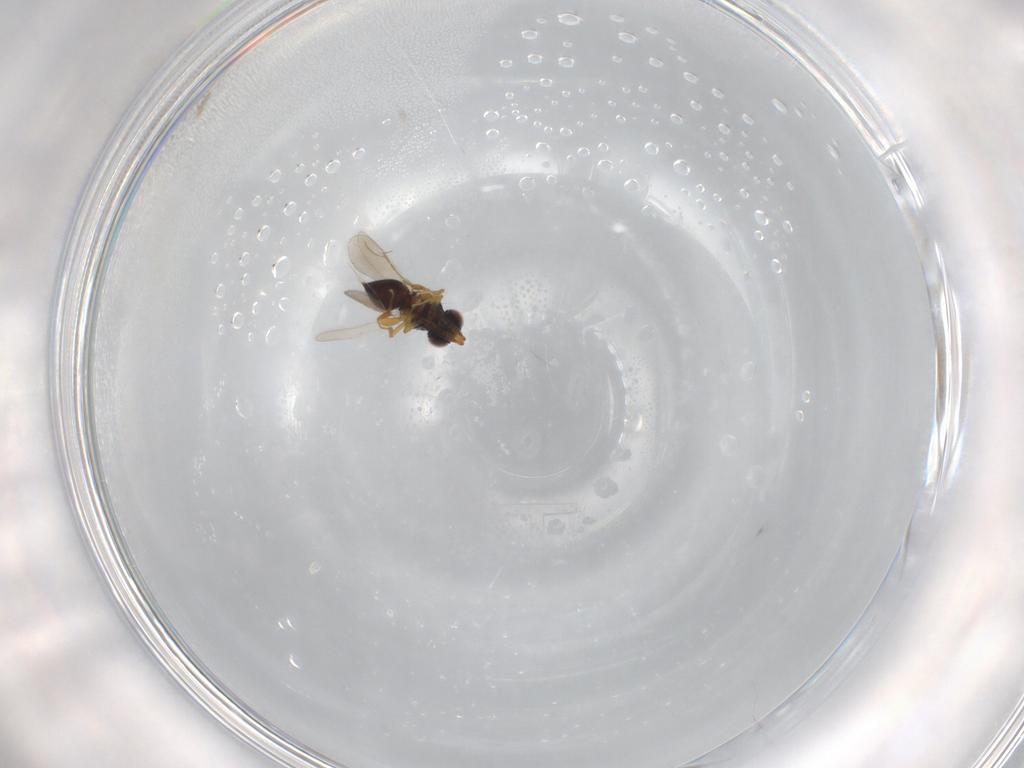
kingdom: Animalia
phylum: Arthropoda
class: Insecta
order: Hymenoptera
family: Formicidae
